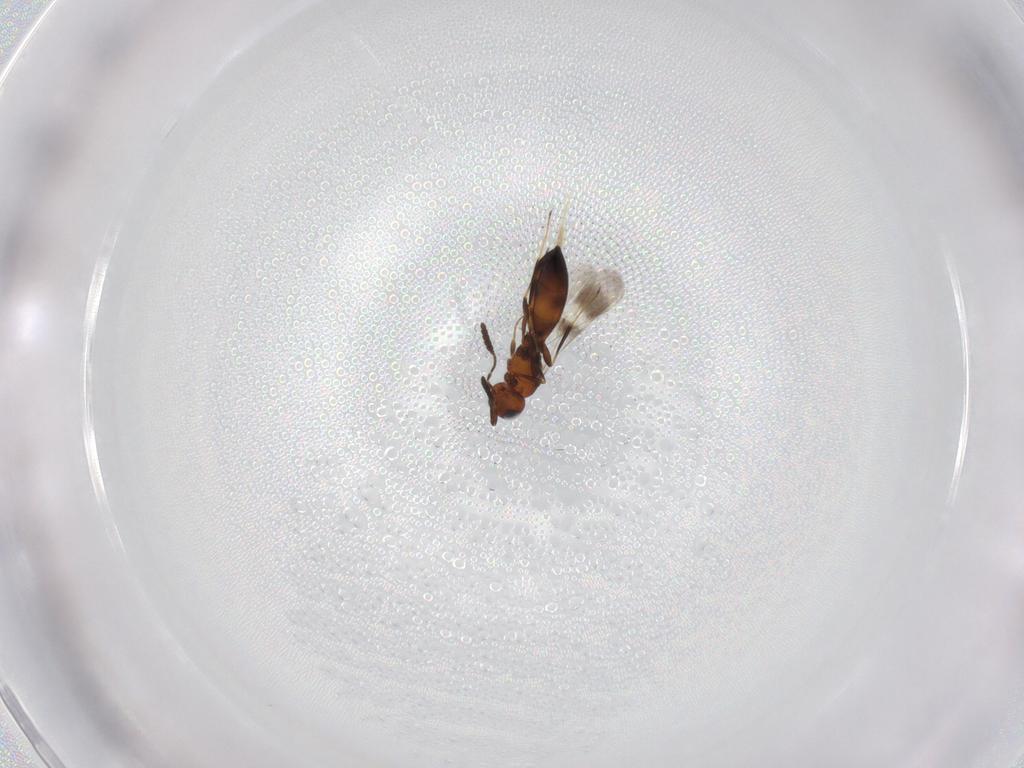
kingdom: Animalia
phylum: Arthropoda
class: Insecta
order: Hymenoptera
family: Scelionidae
